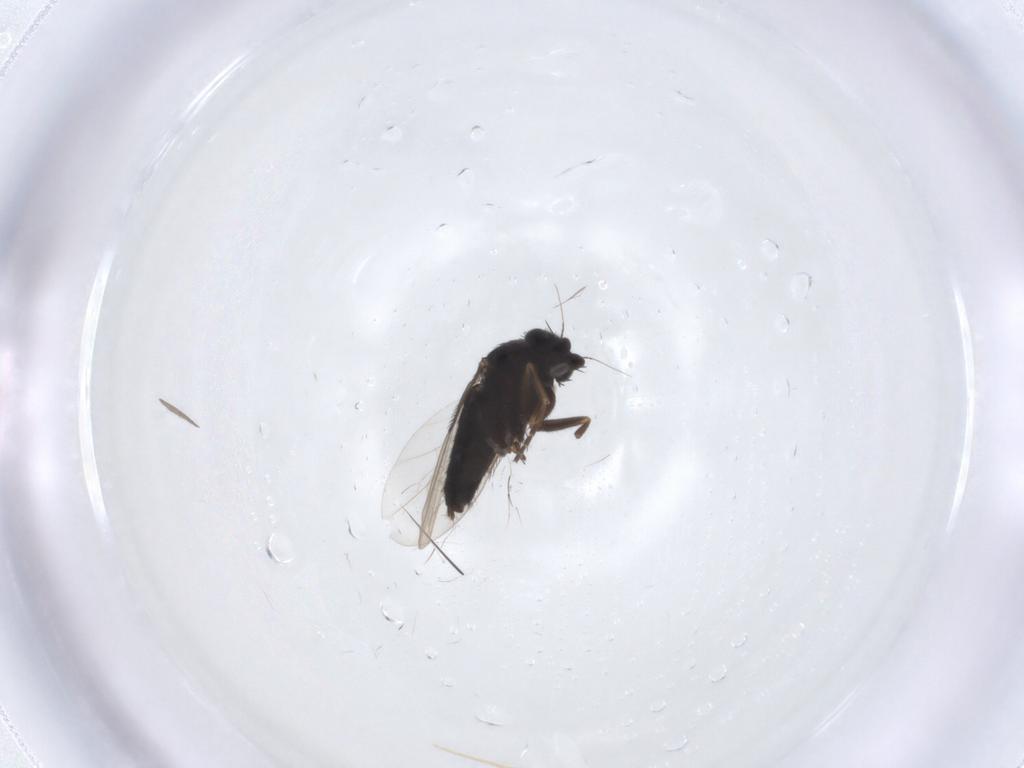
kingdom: Animalia
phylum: Arthropoda
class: Insecta
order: Diptera
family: Phoridae
